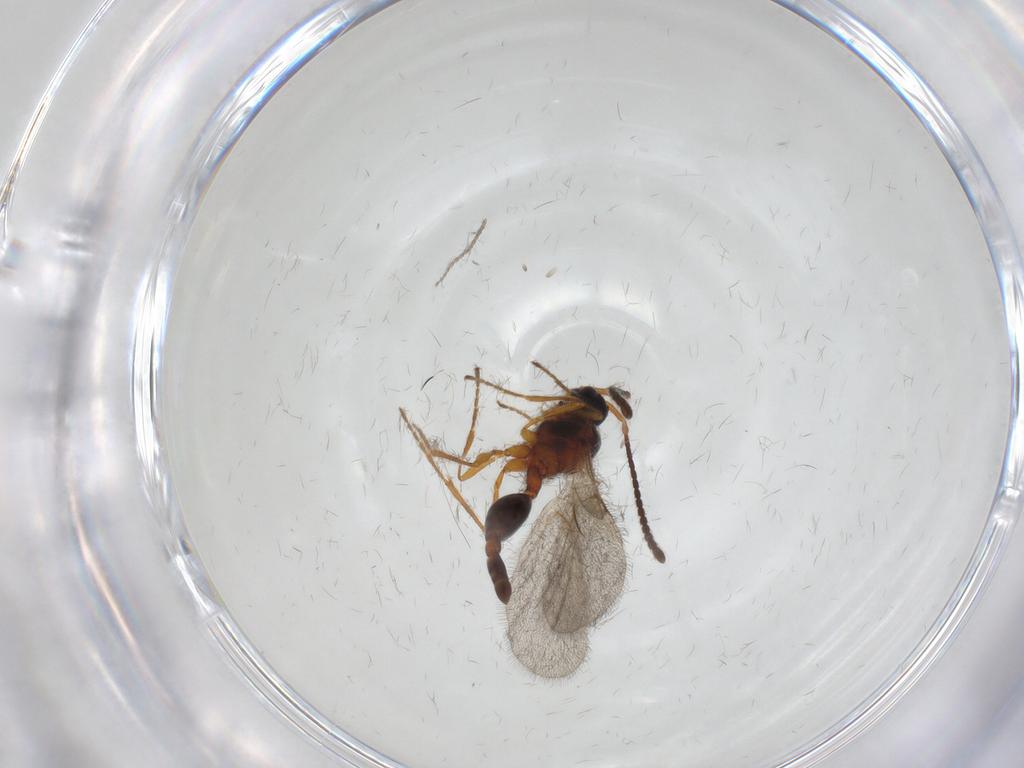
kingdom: Animalia
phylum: Arthropoda
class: Insecta
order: Hymenoptera
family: Diapriidae
